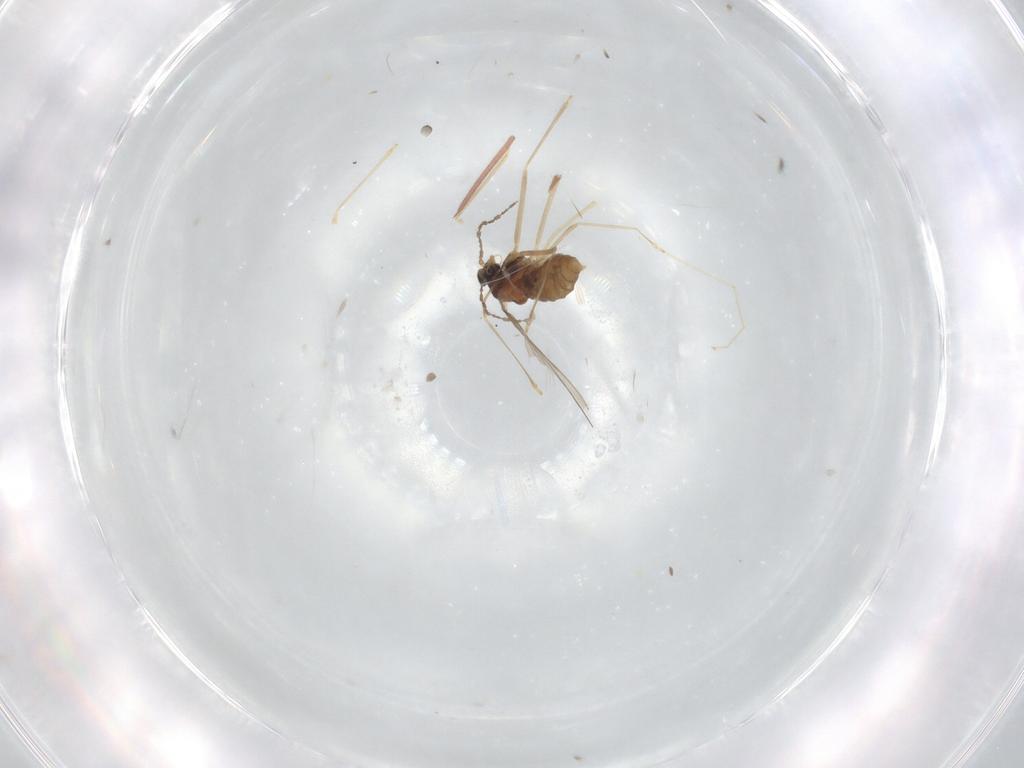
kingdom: Animalia
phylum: Arthropoda
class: Insecta
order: Diptera
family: Cecidomyiidae
